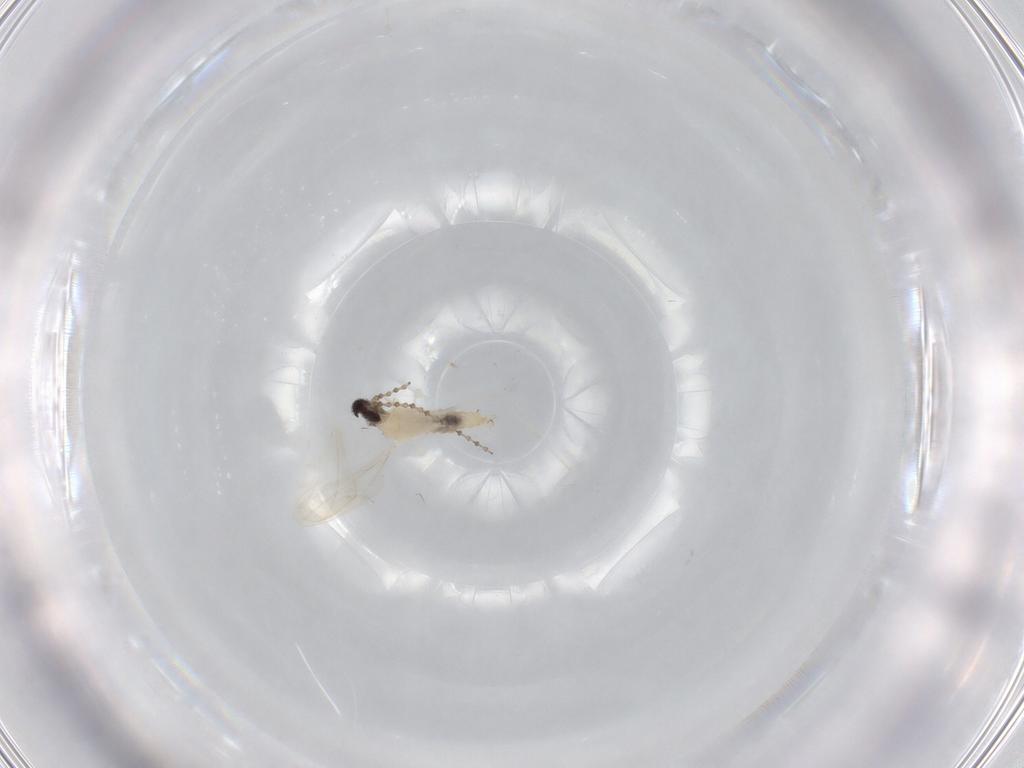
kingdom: Animalia
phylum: Arthropoda
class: Insecta
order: Diptera
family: Cecidomyiidae
